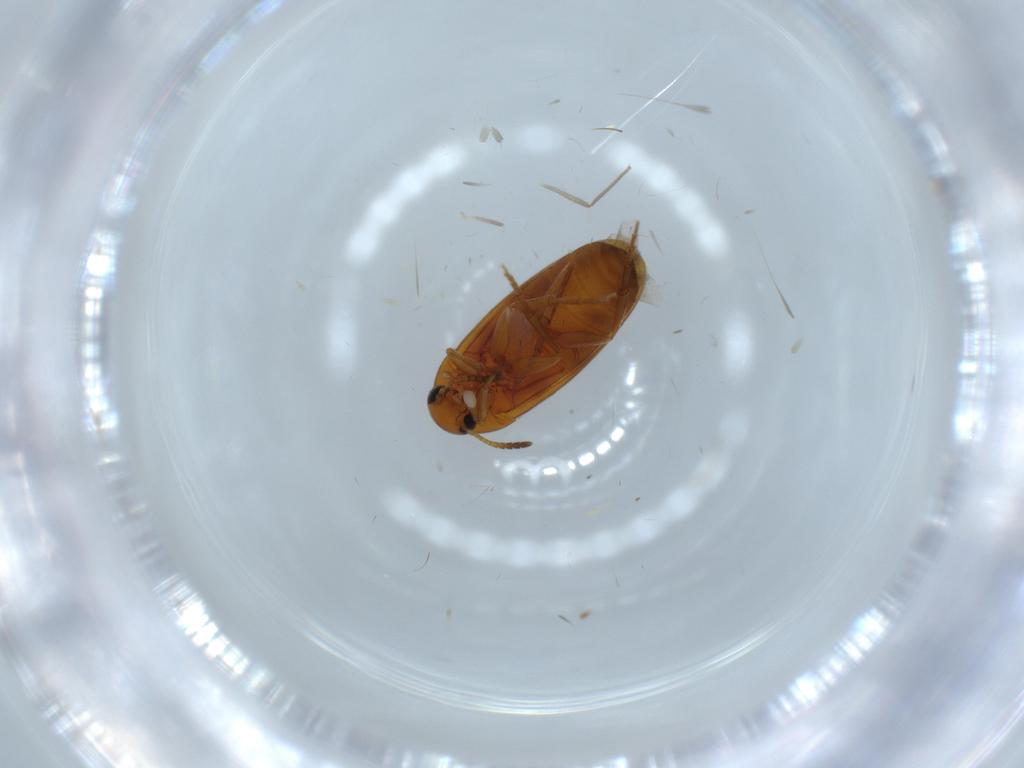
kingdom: Animalia
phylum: Arthropoda
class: Insecta
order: Coleoptera
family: Scraptiidae
